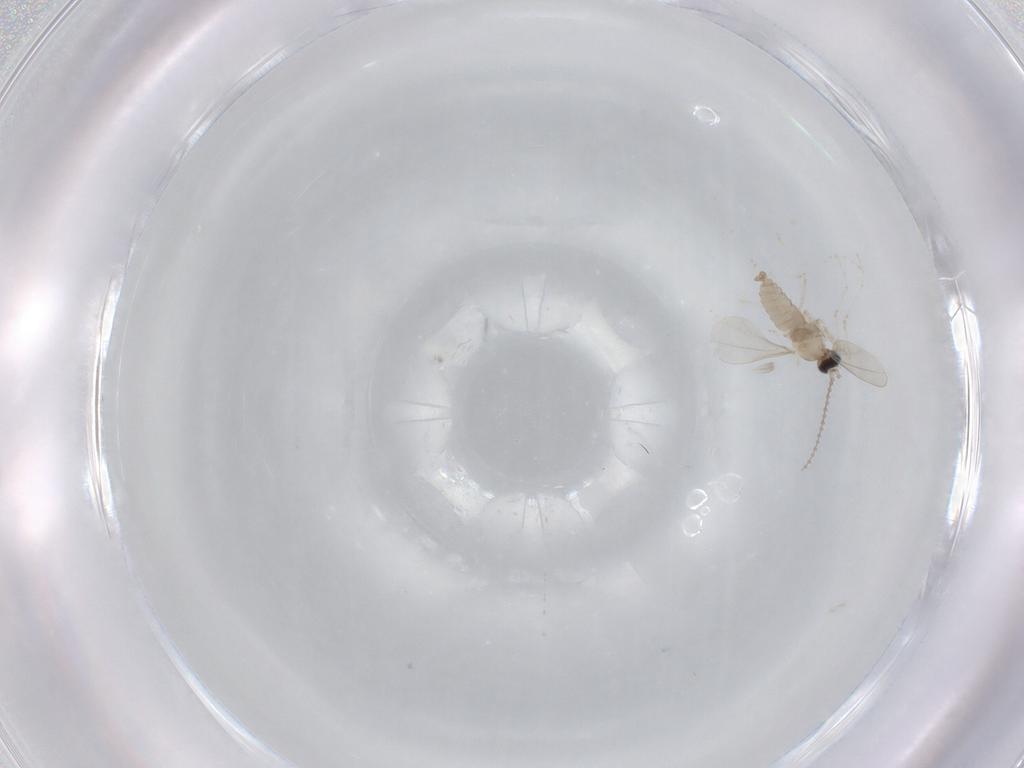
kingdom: Animalia
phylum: Arthropoda
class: Insecta
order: Diptera
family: Cecidomyiidae
